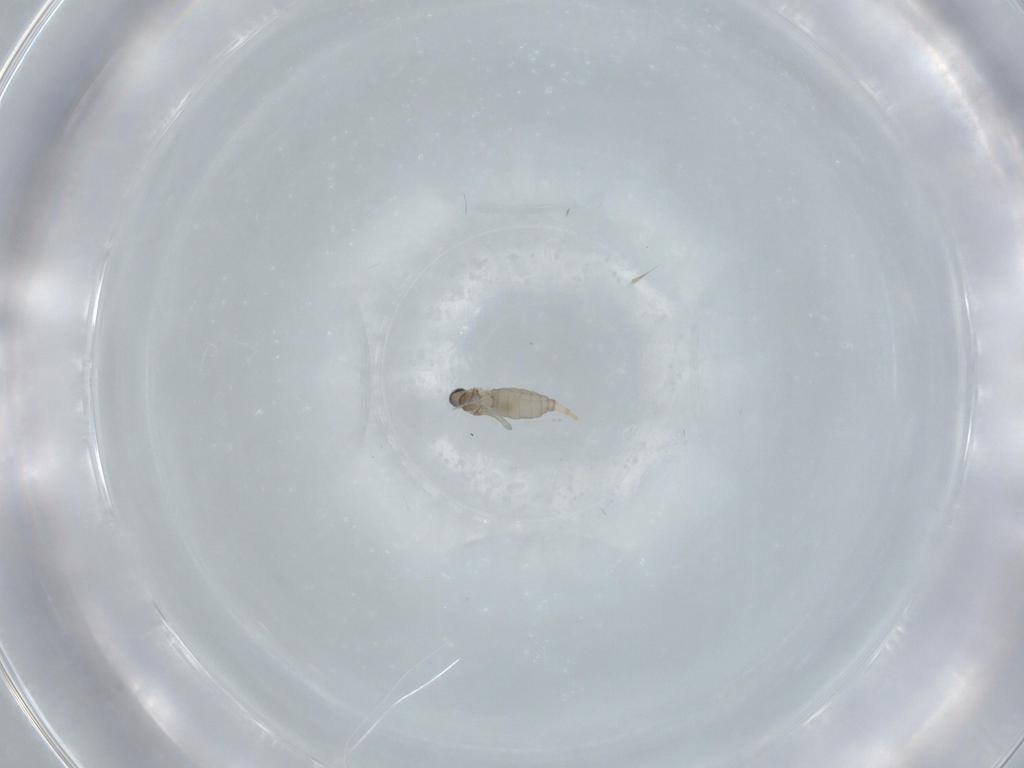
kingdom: Animalia
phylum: Arthropoda
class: Insecta
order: Diptera
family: Cecidomyiidae
